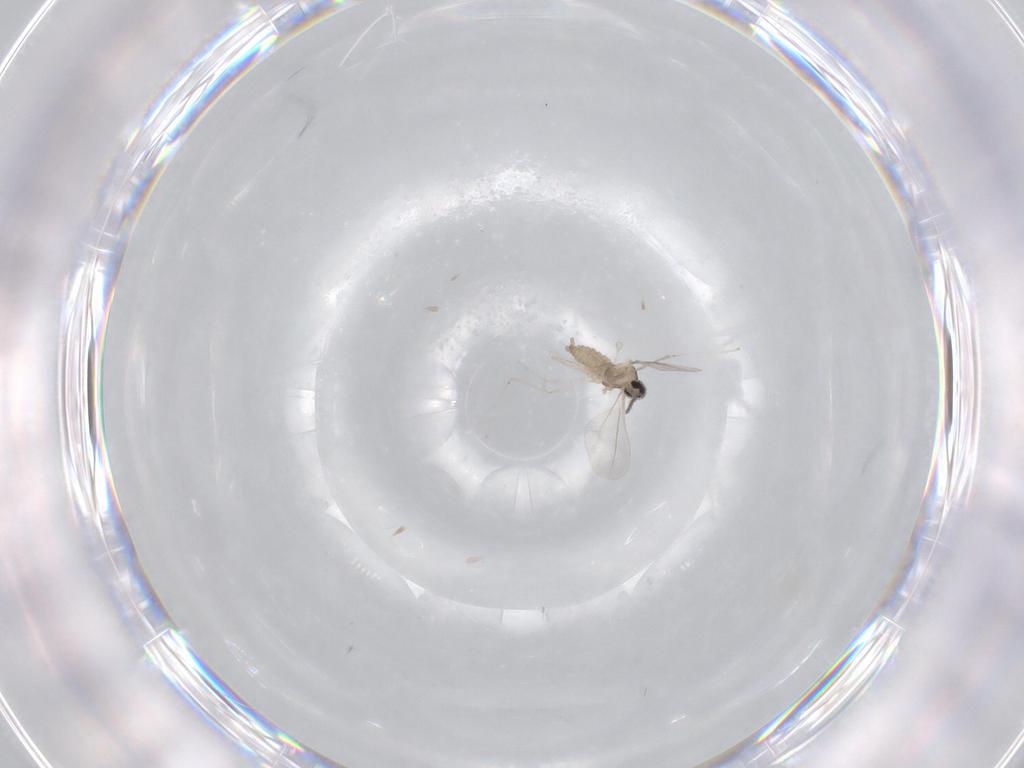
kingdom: Animalia
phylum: Arthropoda
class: Insecta
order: Diptera
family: Cecidomyiidae
